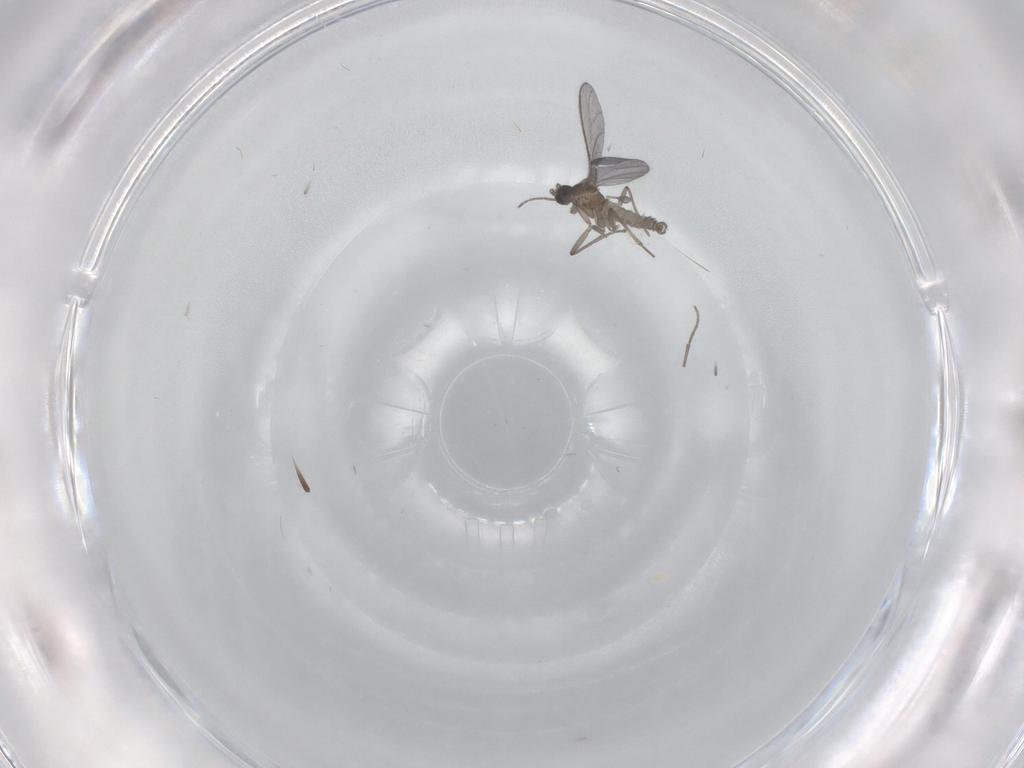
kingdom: Animalia
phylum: Arthropoda
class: Insecta
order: Diptera
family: Sciaridae
